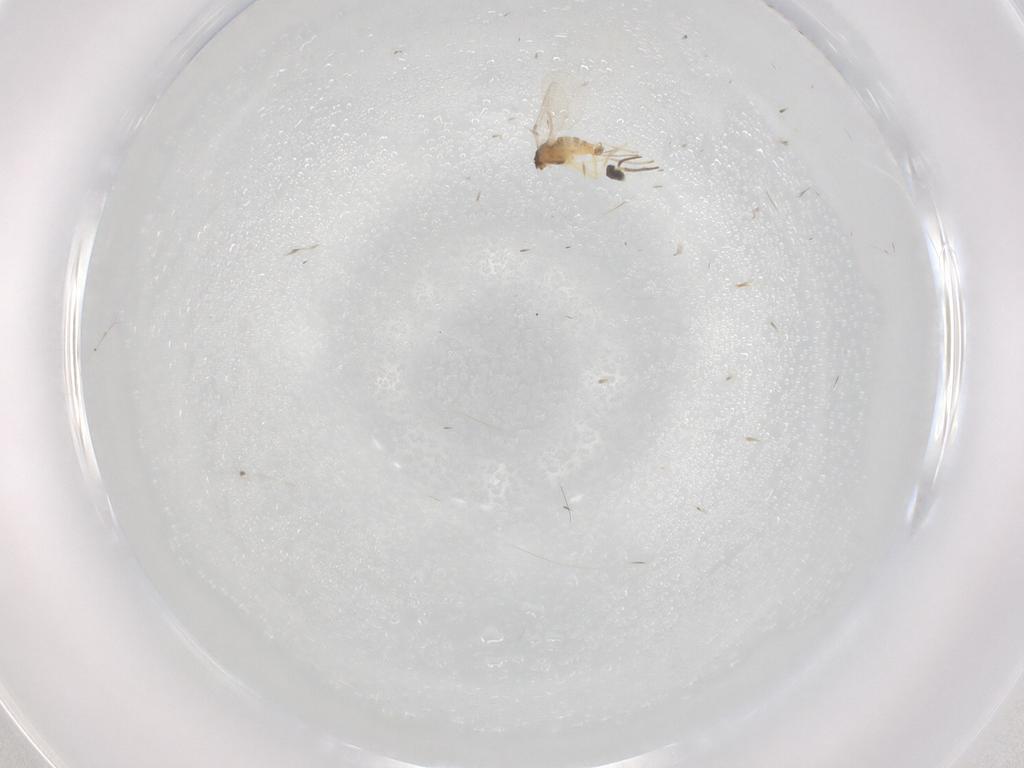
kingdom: Animalia
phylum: Arthropoda
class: Insecta
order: Diptera
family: Cecidomyiidae
